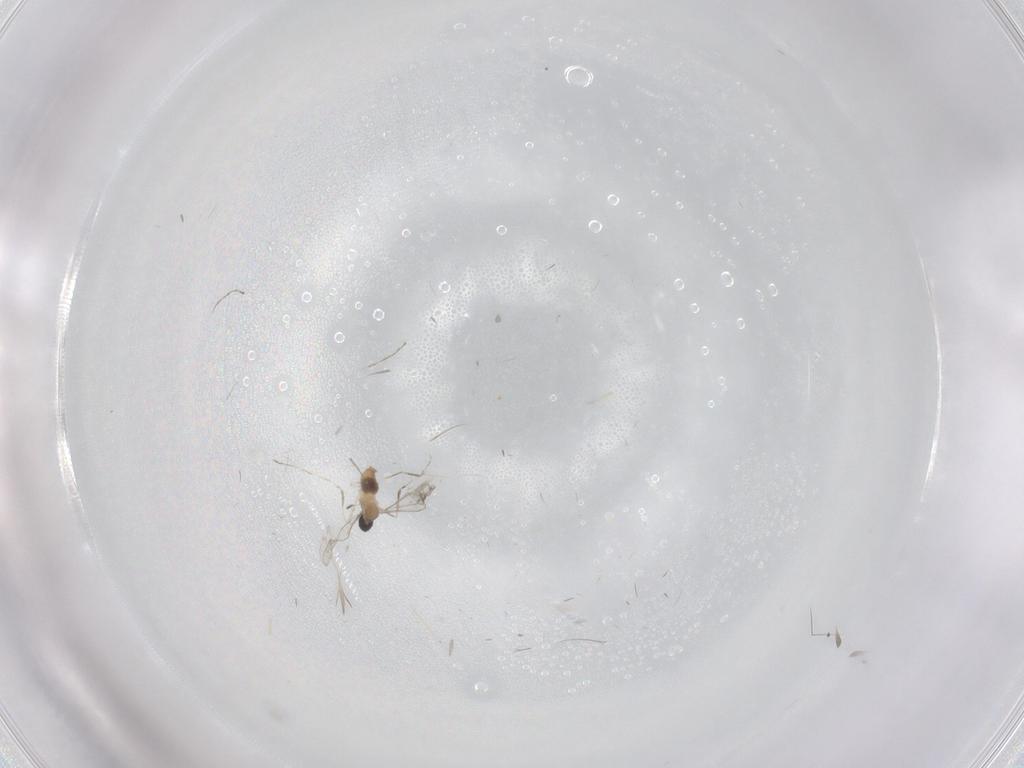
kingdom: Animalia
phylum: Arthropoda
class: Insecta
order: Diptera
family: Cecidomyiidae
